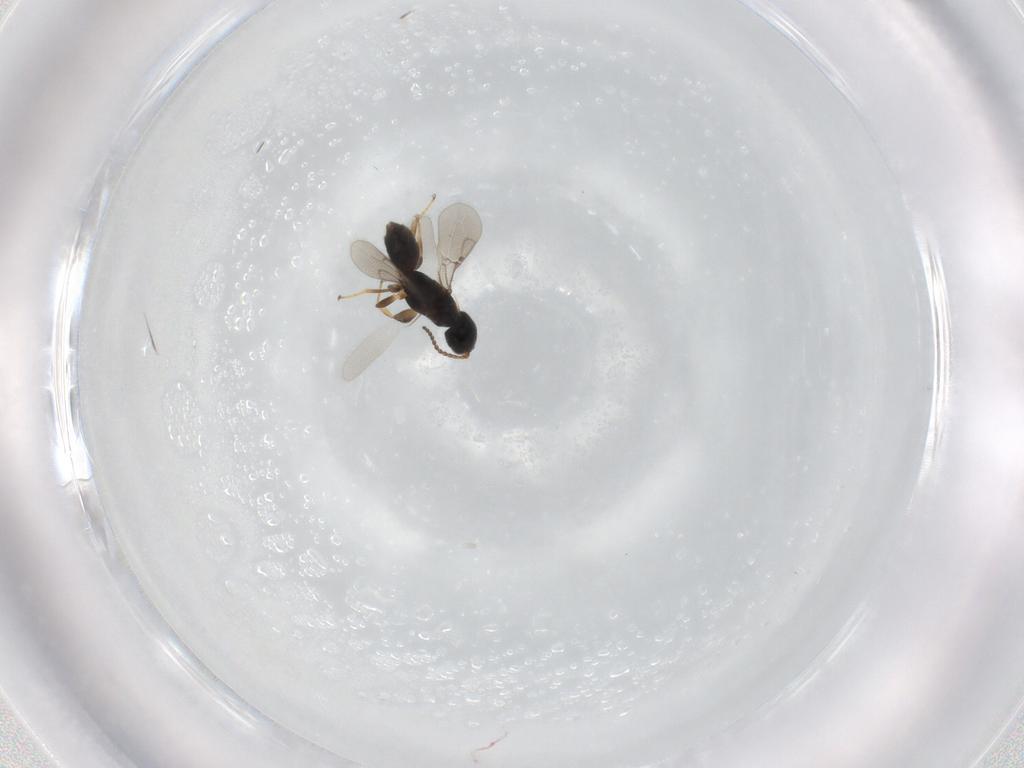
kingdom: Animalia
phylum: Arthropoda
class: Insecta
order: Hymenoptera
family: Bethylidae
